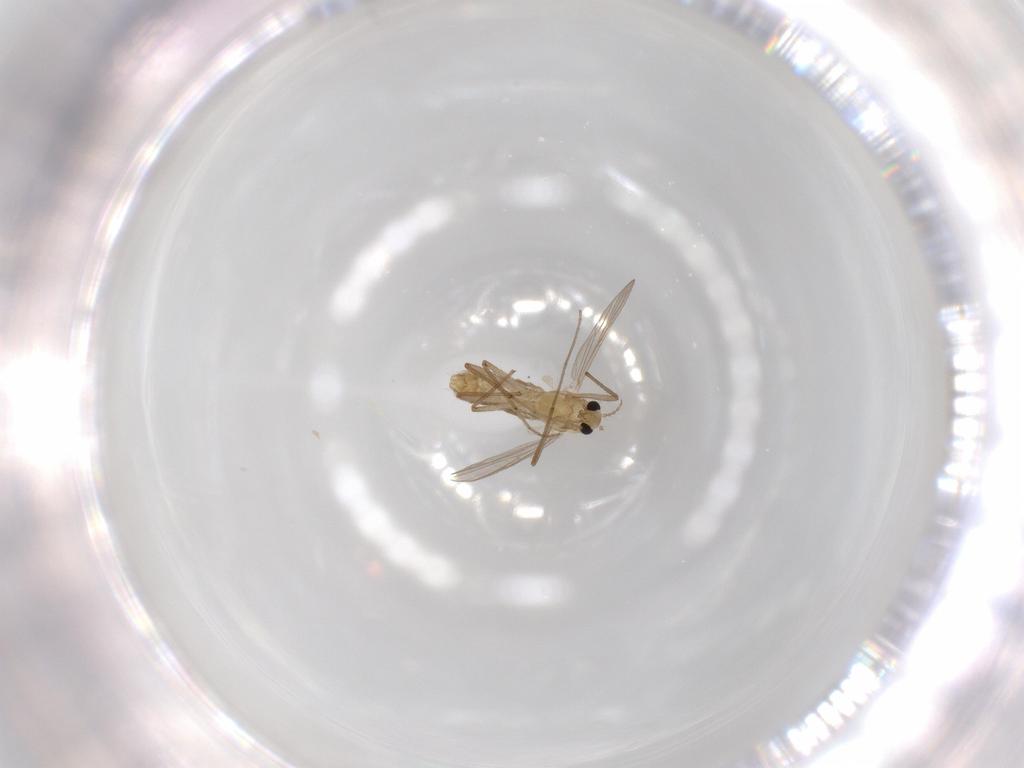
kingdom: Animalia
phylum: Arthropoda
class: Insecta
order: Diptera
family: Chironomidae
